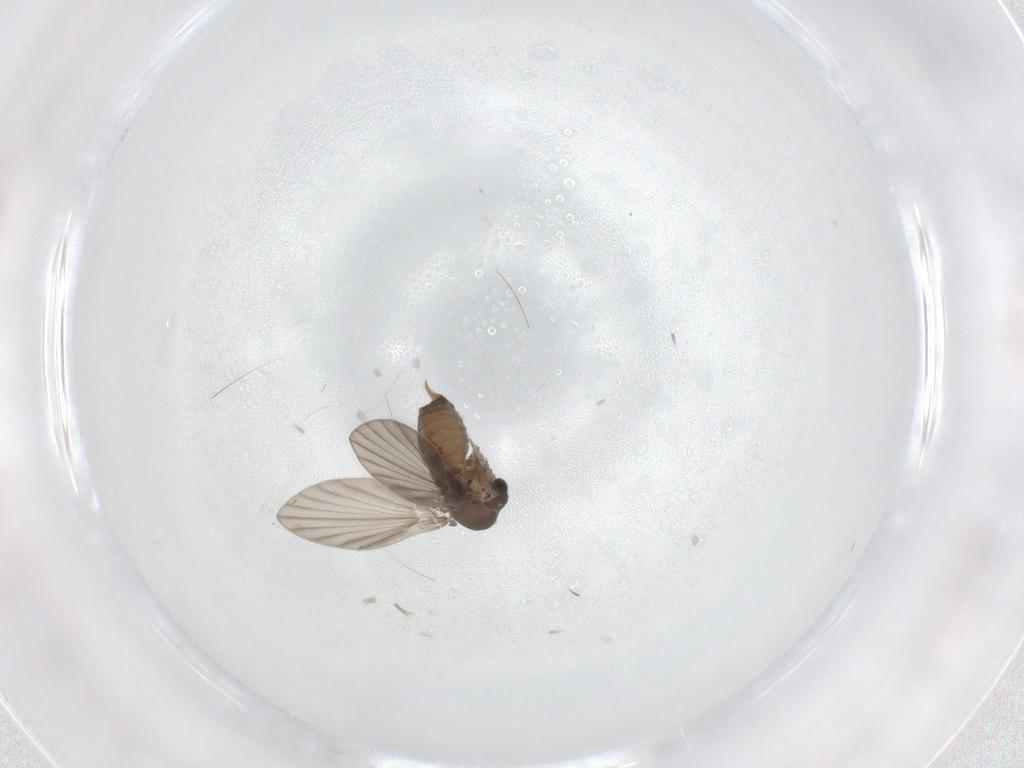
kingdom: Animalia
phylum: Arthropoda
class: Insecta
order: Diptera
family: Psychodidae
